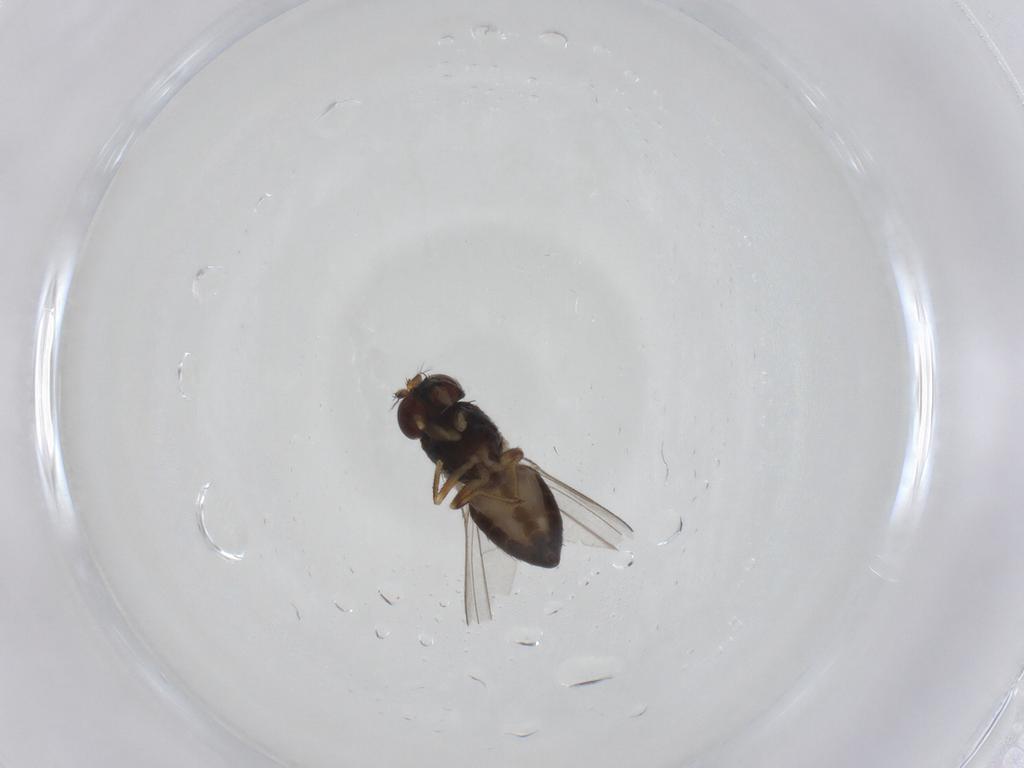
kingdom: Animalia
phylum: Arthropoda
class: Insecta
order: Diptera
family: Ephydridae
